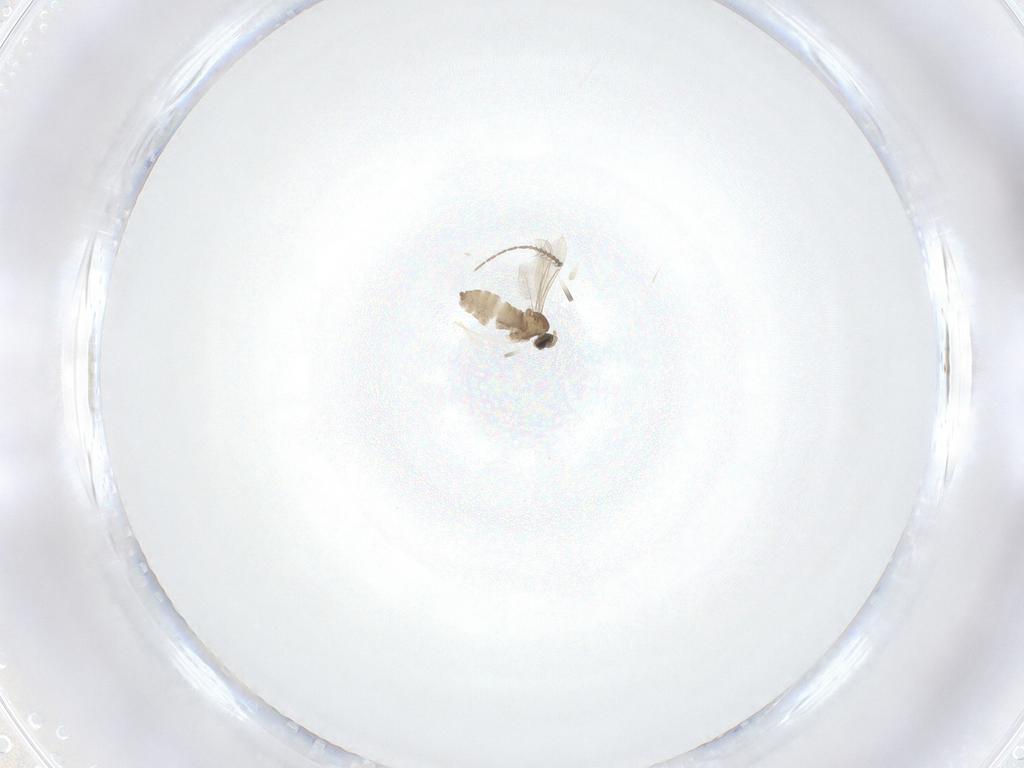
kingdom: Animalia
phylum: Arthropoda
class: Insecta
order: Diptera
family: Cecidomyiidae
